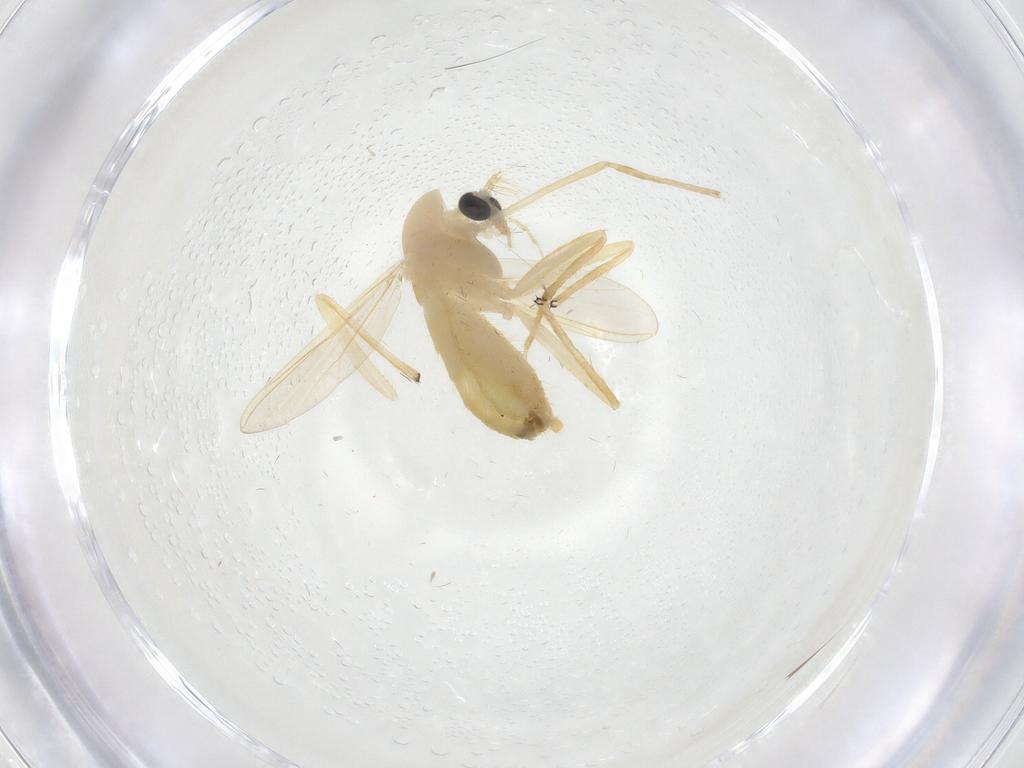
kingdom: Animalia
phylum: Arthropoda
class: Insecta
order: Diptera
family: Chironomidae
